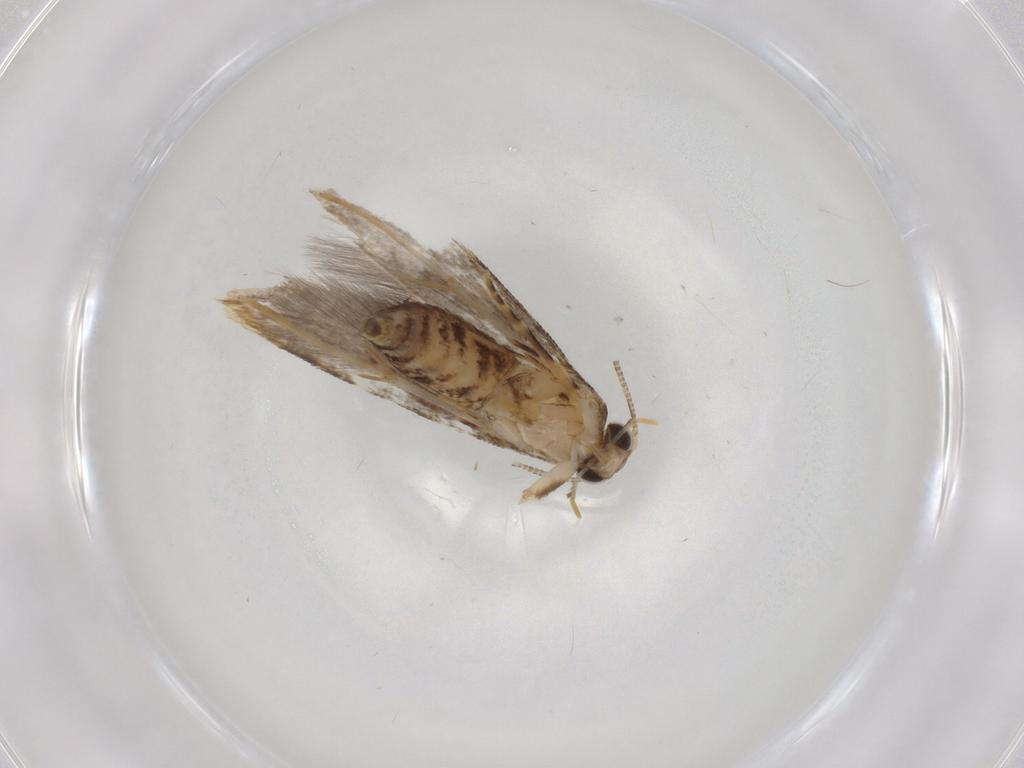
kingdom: Animalia
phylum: Arthropoda
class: Insecta
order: Lepidoptera
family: Tineidae
